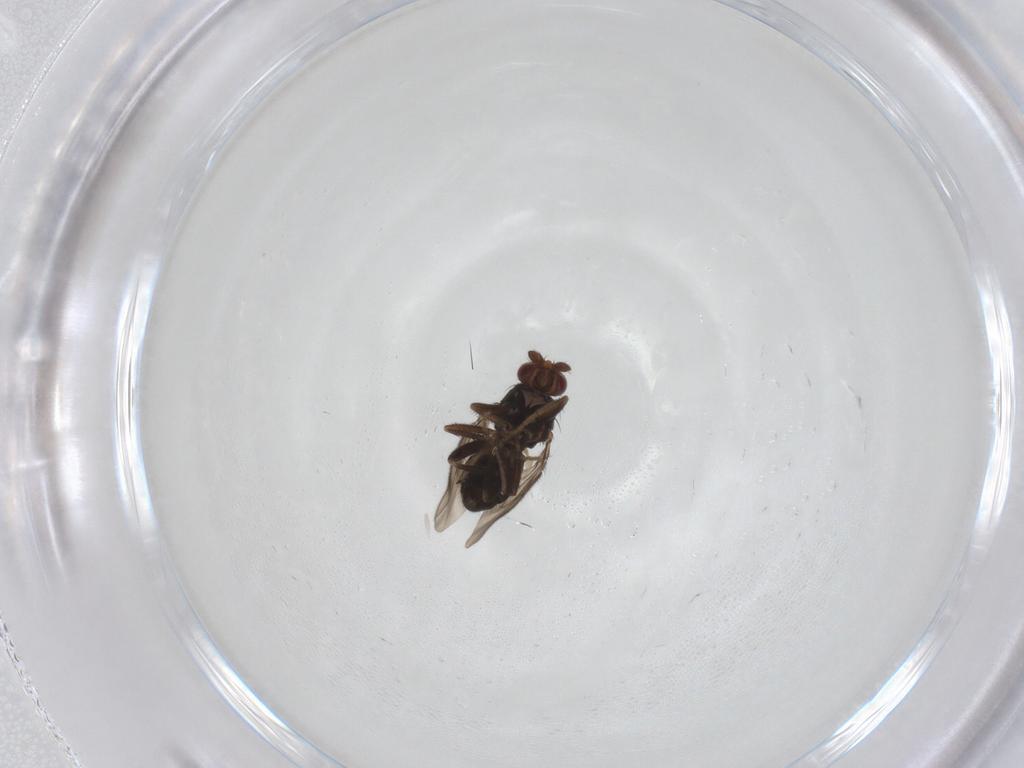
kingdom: Animalia
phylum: Arthropoda
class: Insecta
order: Diptera
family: Sphaeroceridae
